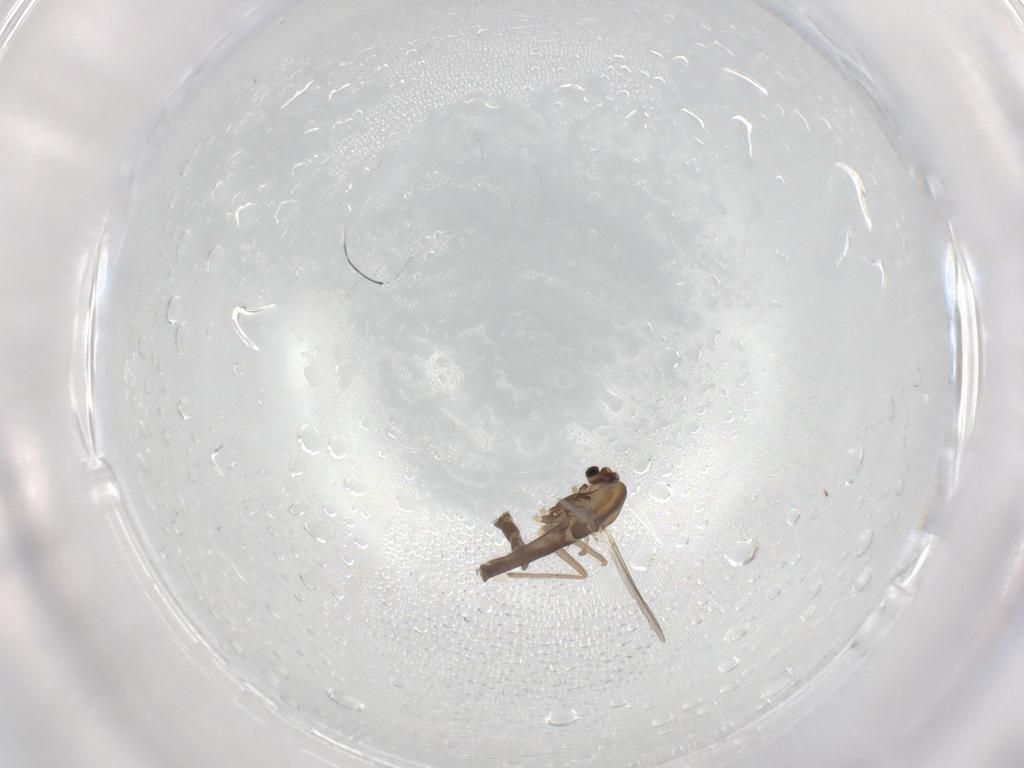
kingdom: Animalia
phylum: Arthropoda
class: Insecta
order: Diptera
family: Chironomidae
